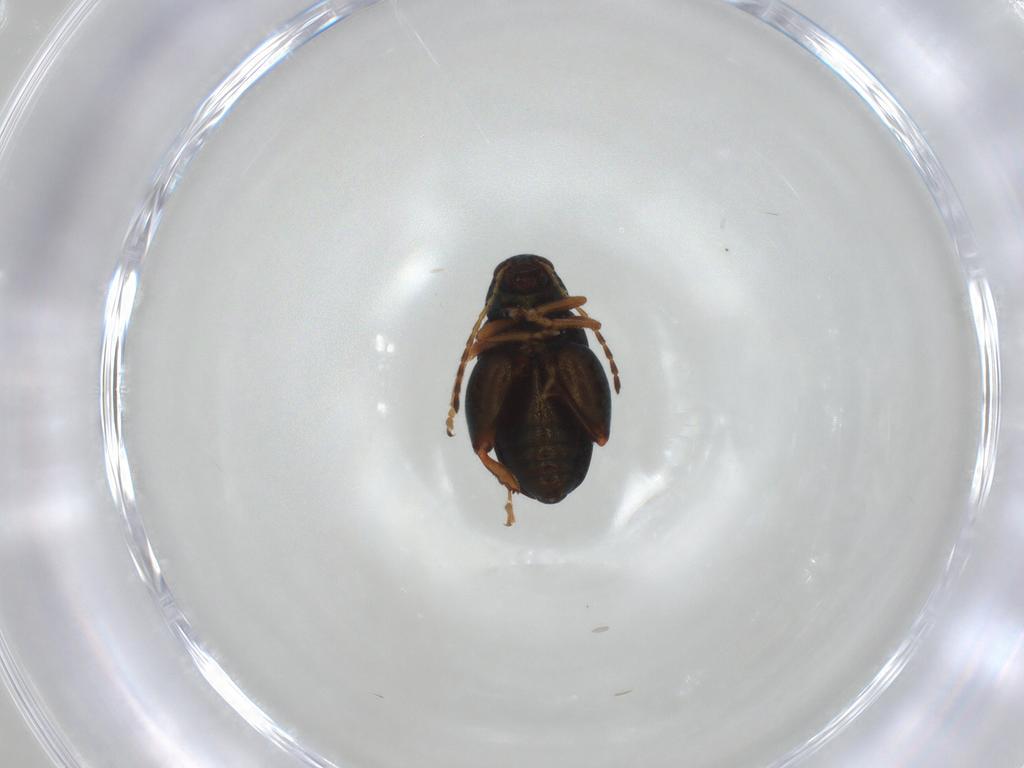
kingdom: Animalia
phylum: Arthropoda
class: Insecta
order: Coleoptera
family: Chrysomelidae
